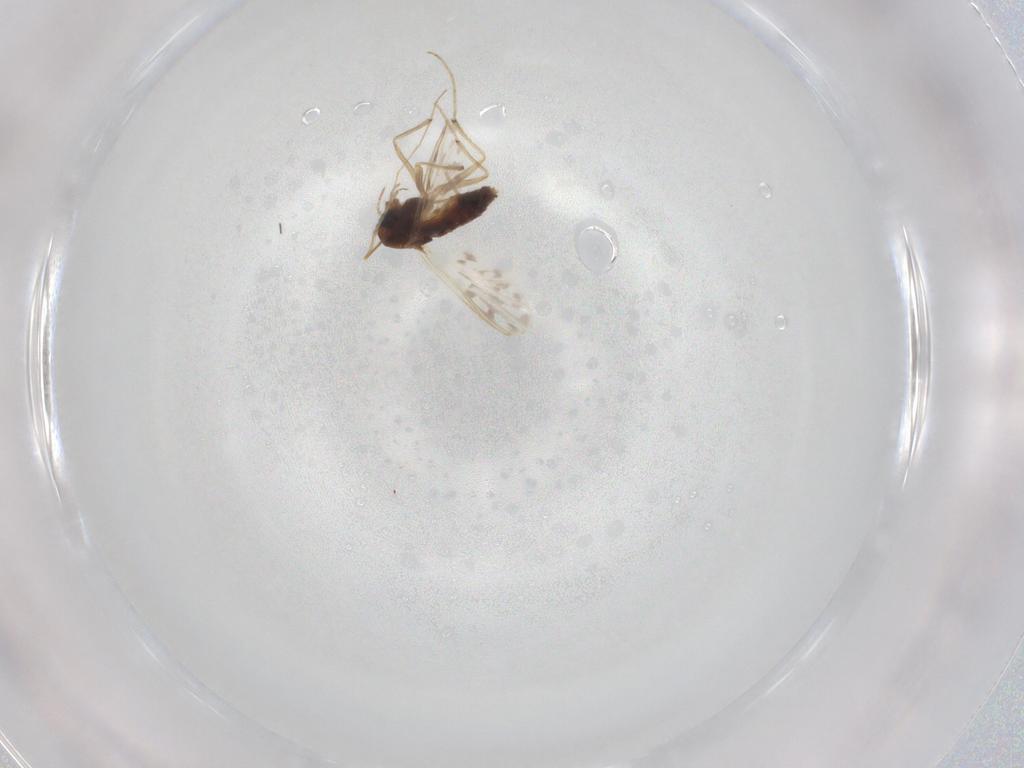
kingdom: Animalia
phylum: Arthropoda
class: Insecta
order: Diptera
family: Chironomidae
